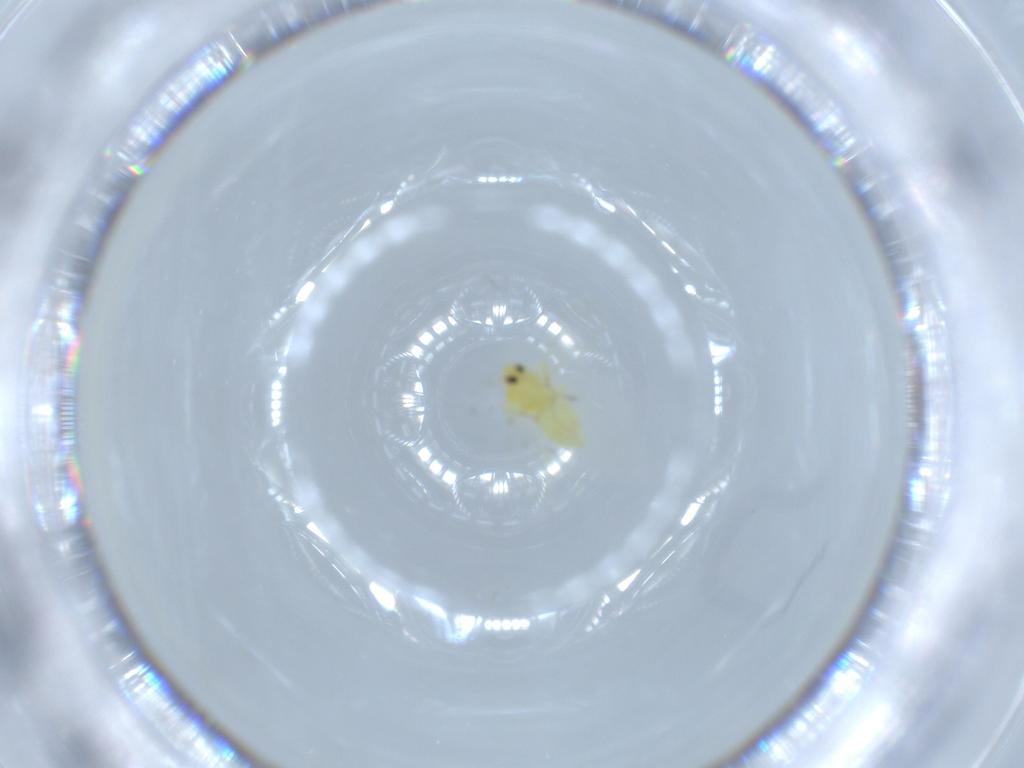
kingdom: Animalia
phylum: Arthropoda
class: Insecta
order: Hemiptera
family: Aleyrodidae
